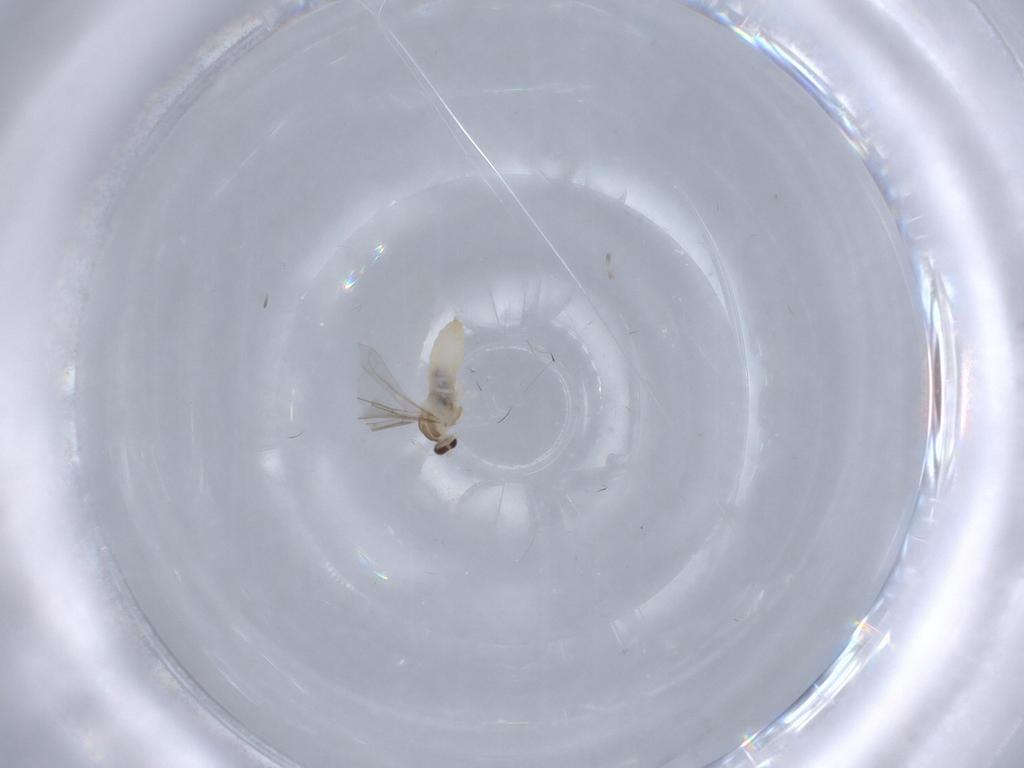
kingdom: Animalia
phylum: Arthropoda
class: Insecta
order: Diptera
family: Cecidomyiidae
